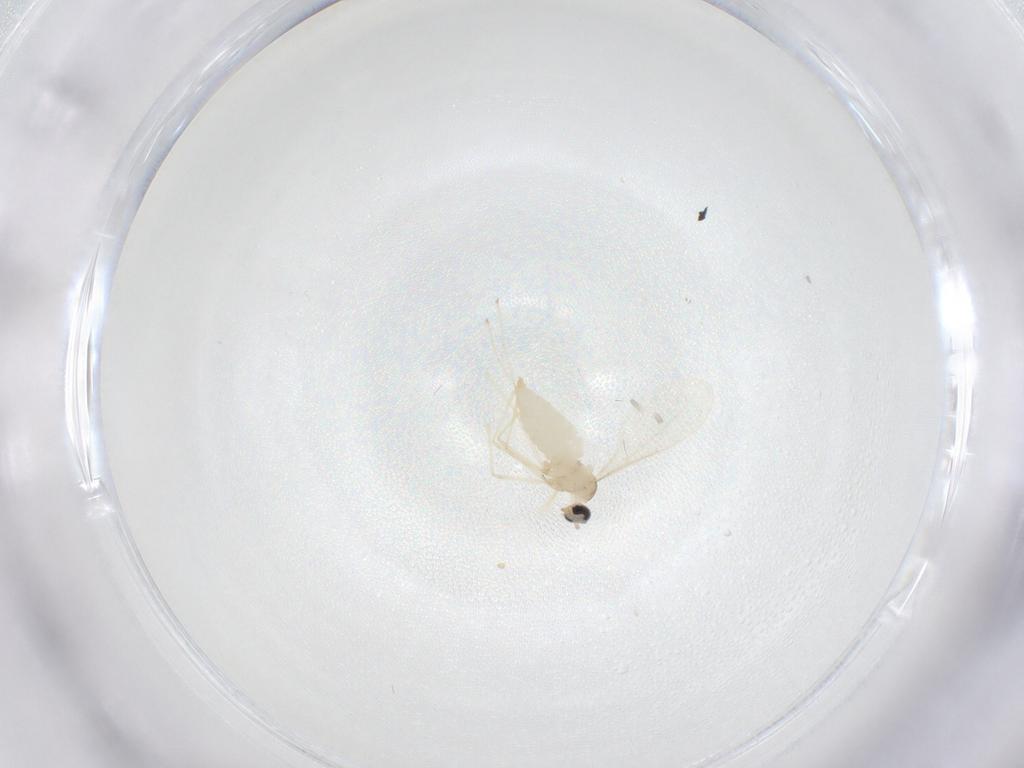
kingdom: Animalia
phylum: Arthropoda
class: Insecta
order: Diptera
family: Cecidomyiidae
